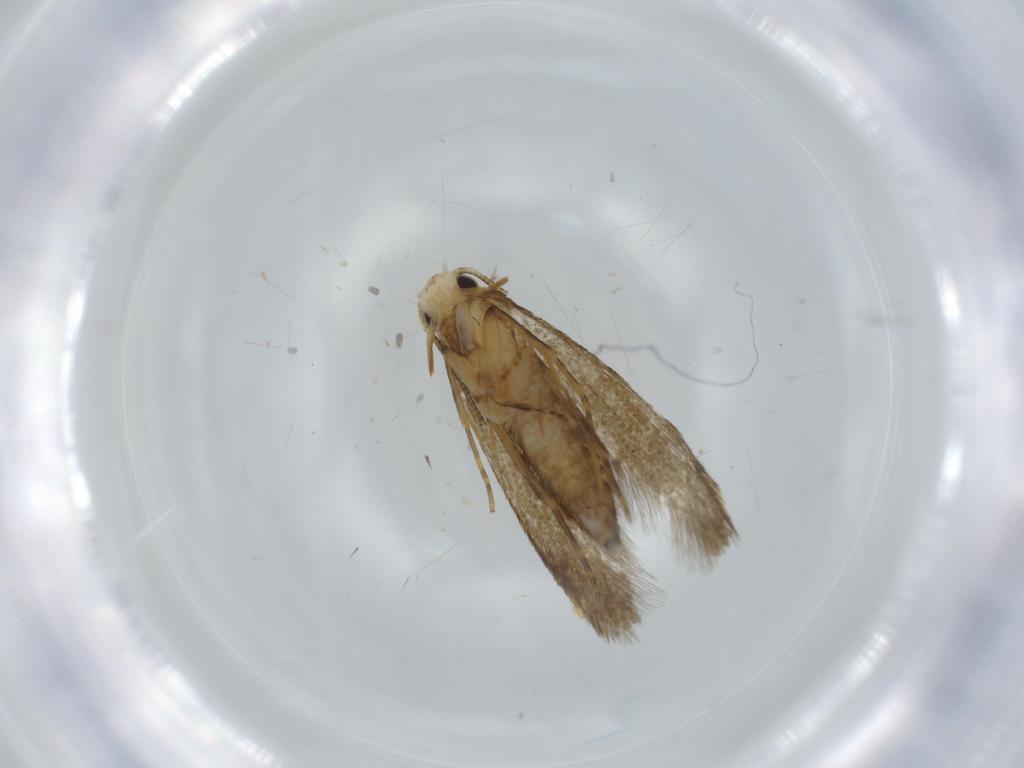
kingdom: Animalia
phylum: Arthropoda
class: Insecta
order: Lepidoptera
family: Tineidae
